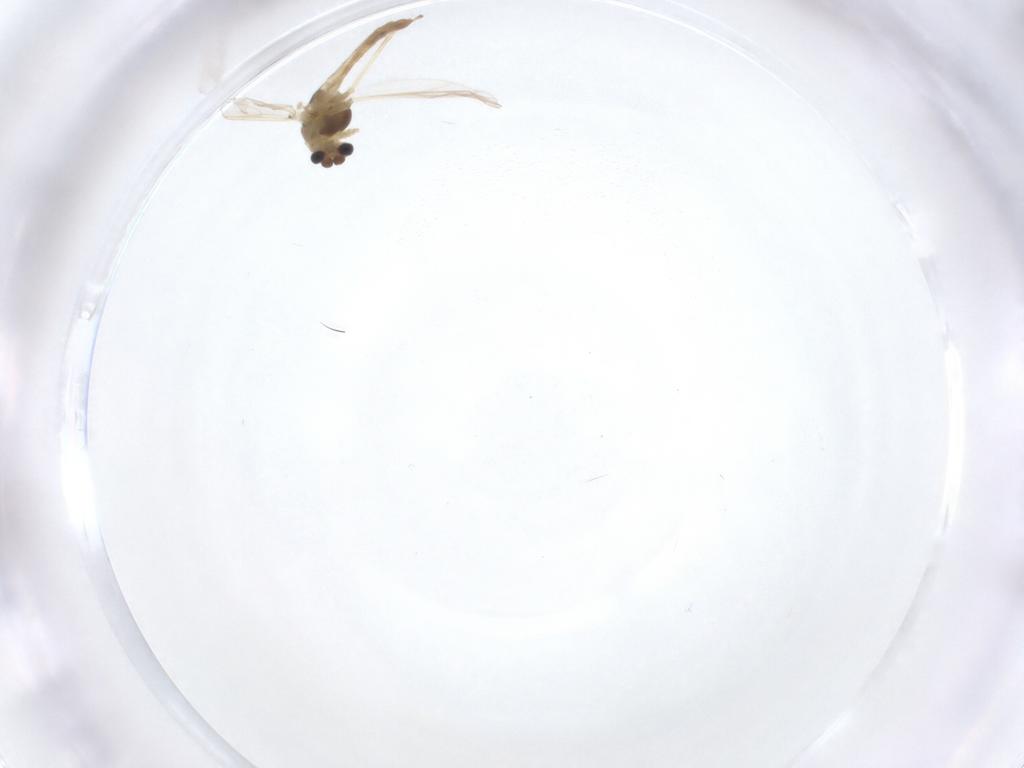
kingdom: Animalia
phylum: Arthropoda
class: Insecta
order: Diptera
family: Chironomidae
